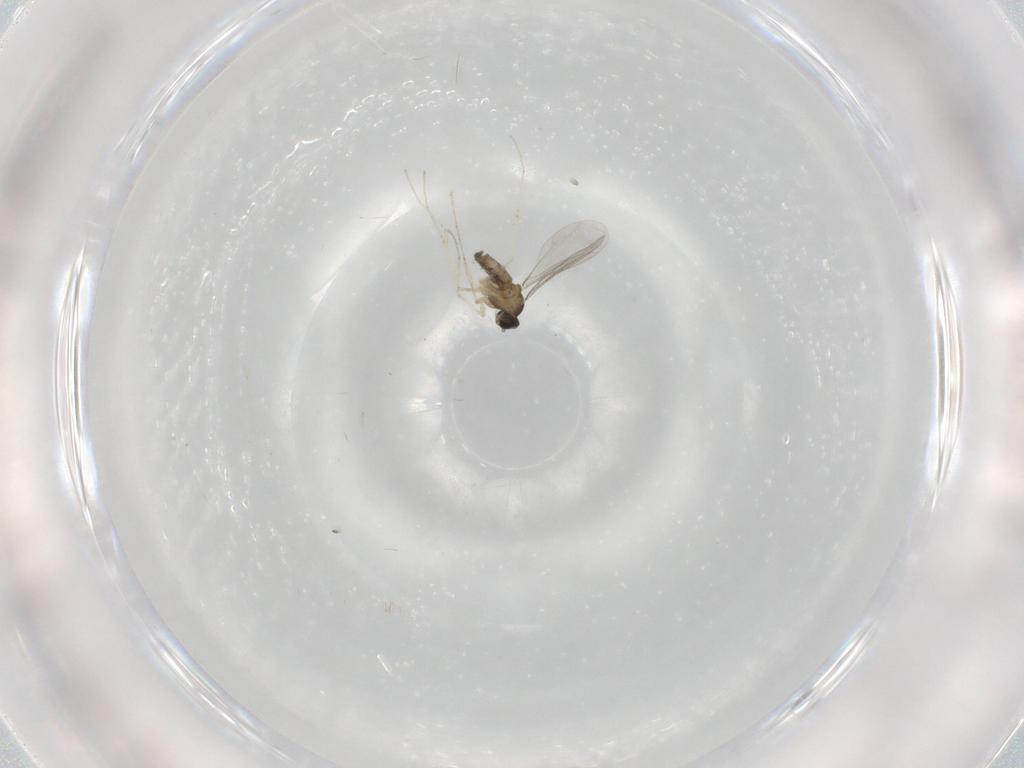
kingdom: Animalia
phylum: Arthropoda
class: Insecta
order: Diptera
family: Cecidomyiidae
